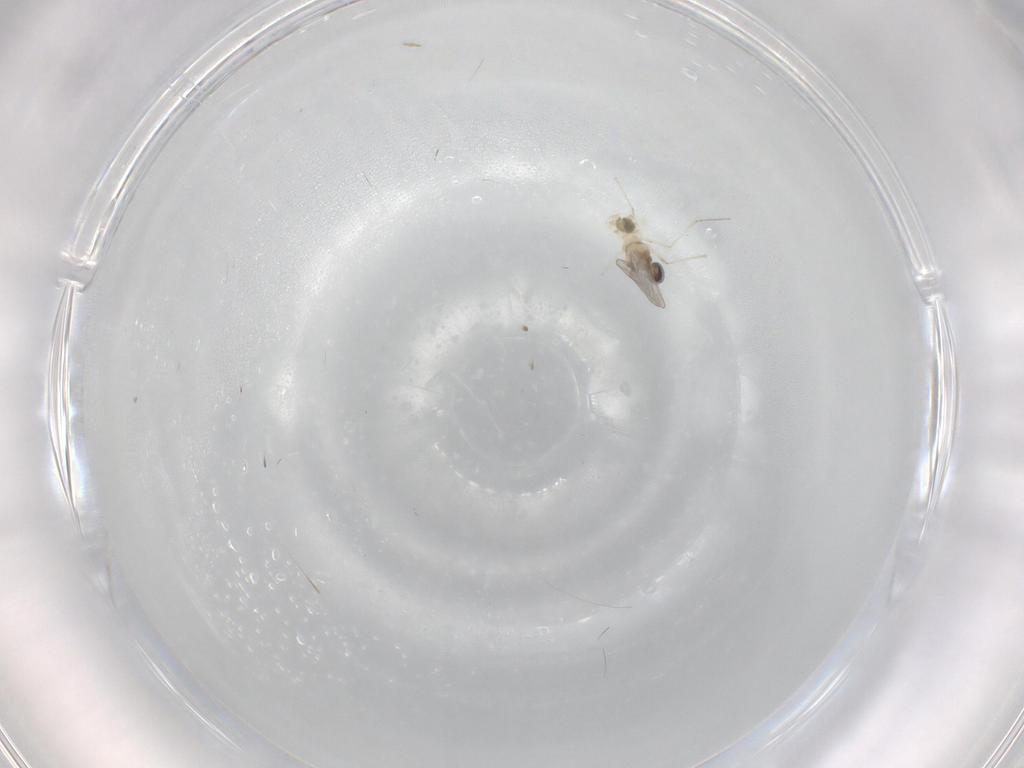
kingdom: Animalia
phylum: Arthropoda
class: Insecta
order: Diptera
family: Cecidomyiidae
